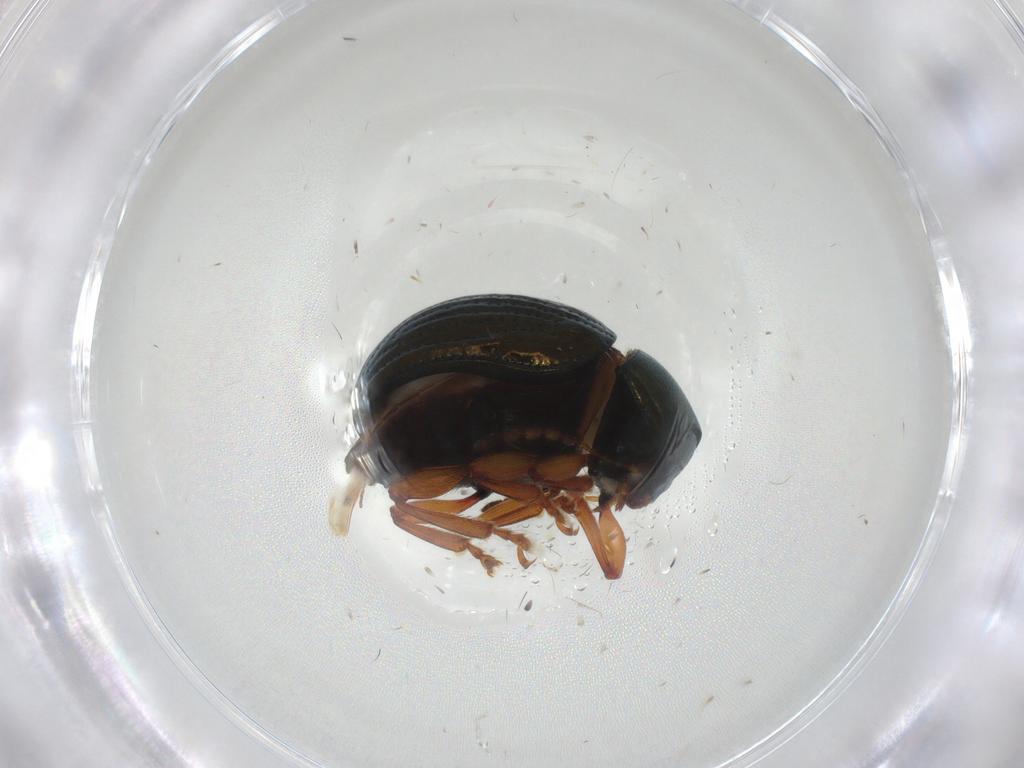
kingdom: Animalia
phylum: Arthropoda
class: Insecta
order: Coleoptera
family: Chrysomelidae
